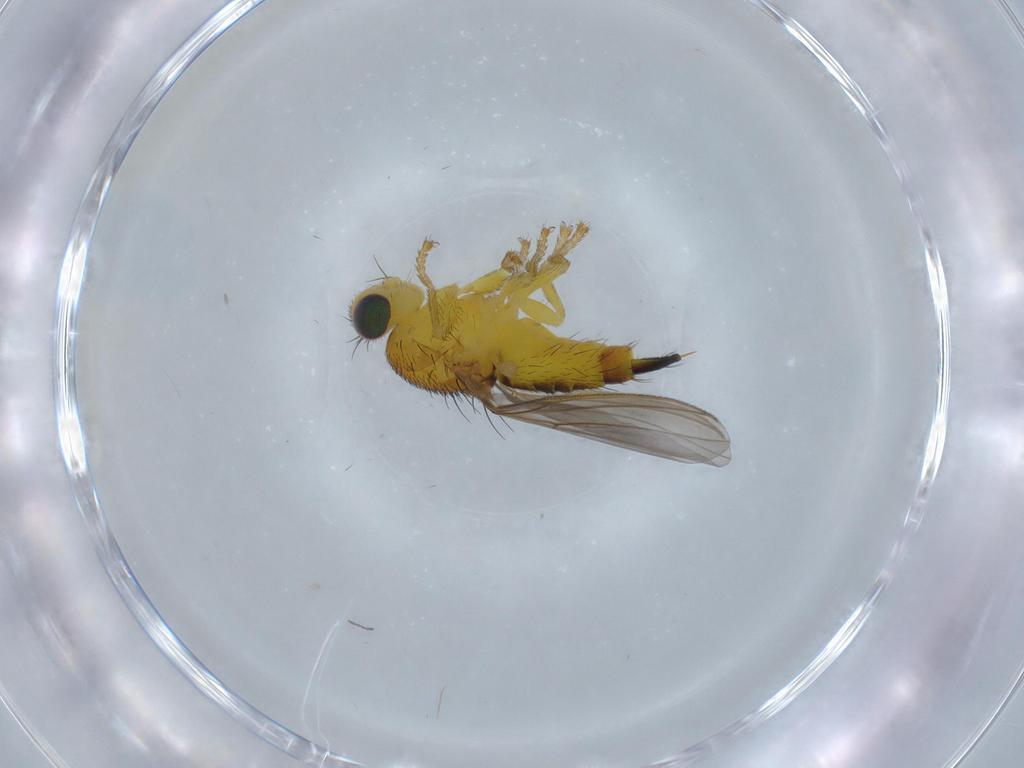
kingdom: Animalia
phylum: Arthropoda
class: Insecta
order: Diptera
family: Fergusoninidae
